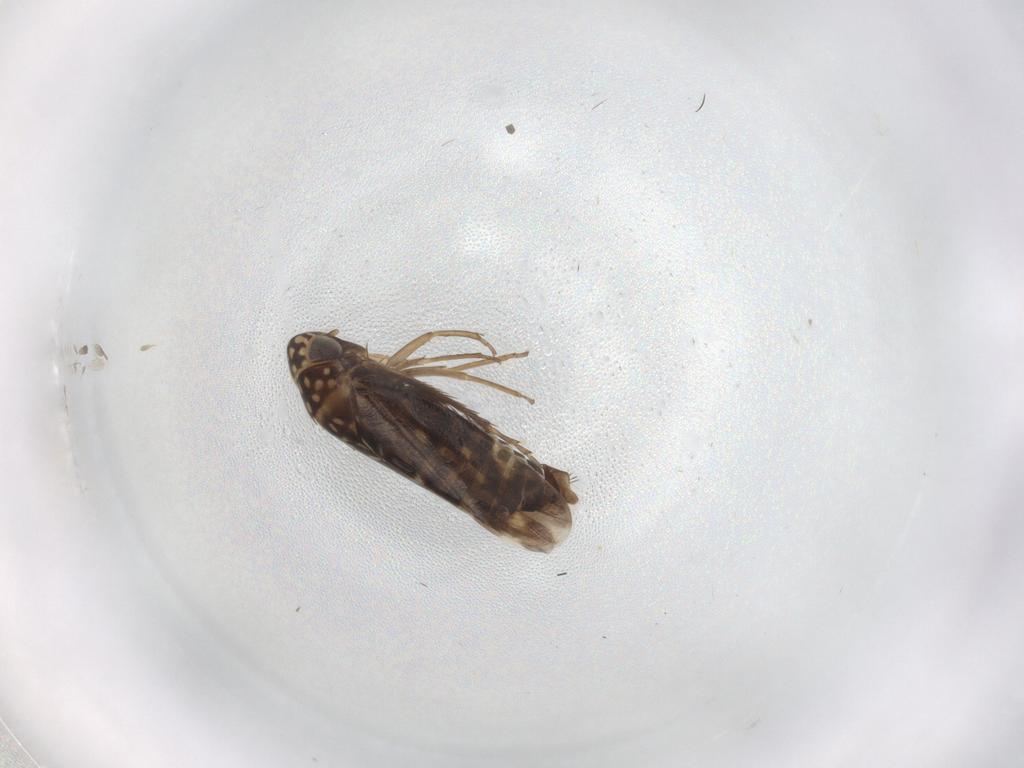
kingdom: Animalia
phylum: Arthropoda
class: Insecta
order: Hemiptera
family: Cicadellidae
